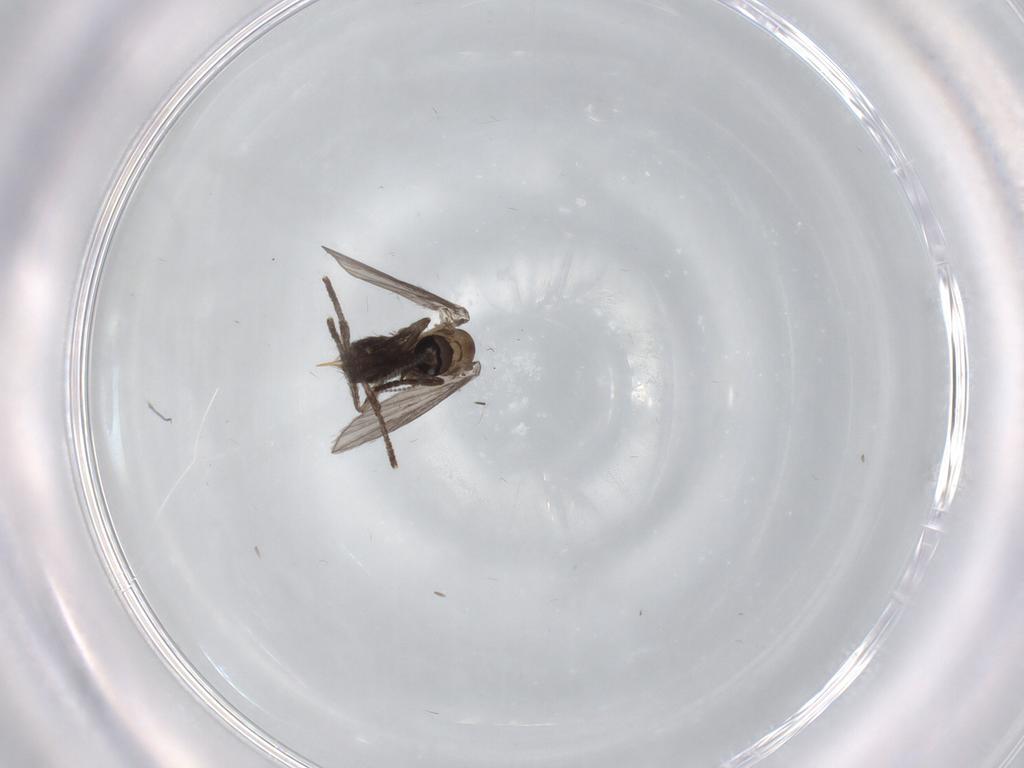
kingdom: Animalia
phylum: Arthropoda
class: Insecta
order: Diptera
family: Psychodidae
